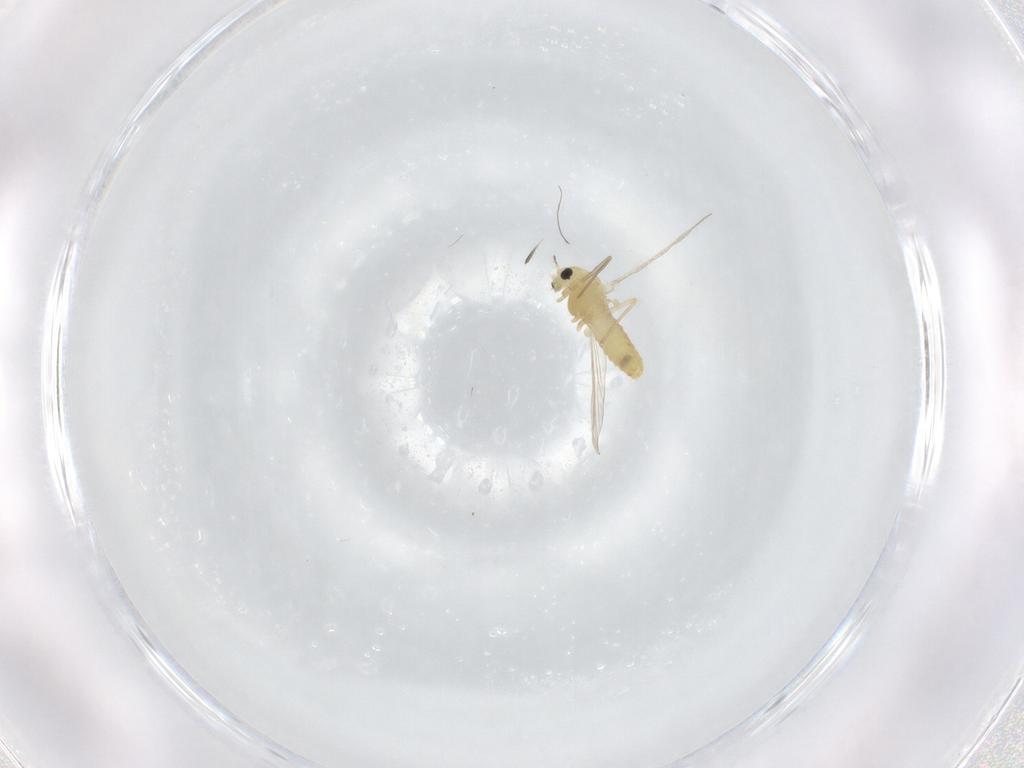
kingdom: Animalia
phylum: Arthropoda
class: Insecta
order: Diptera
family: Chironomidae
